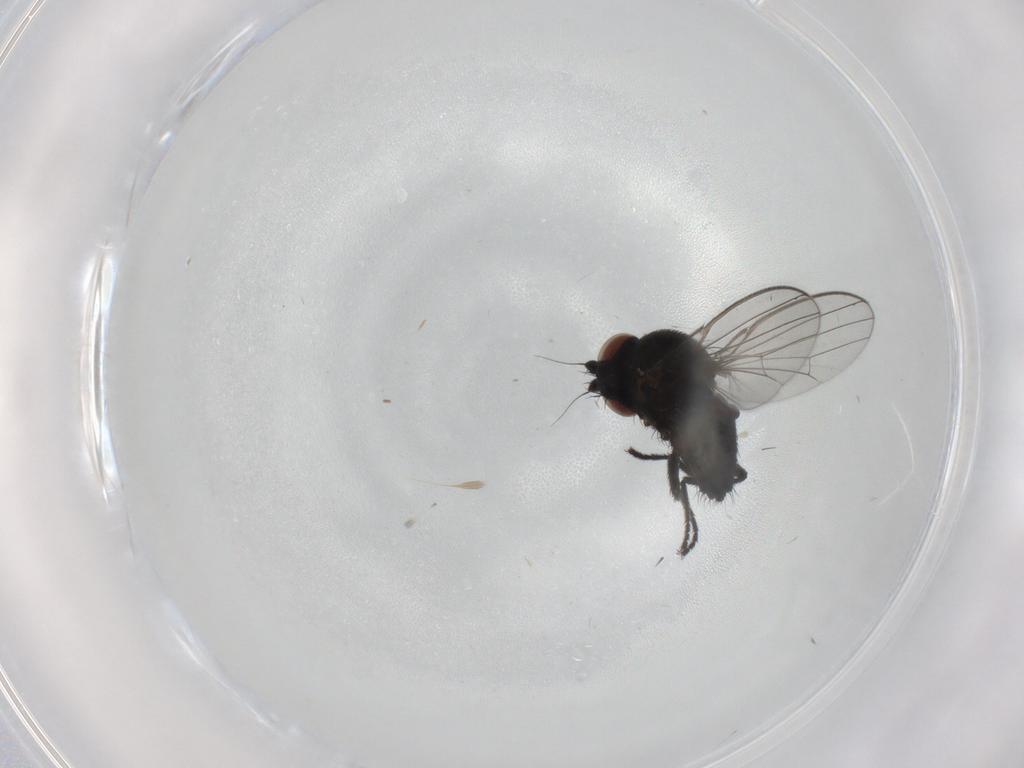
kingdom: Animalia
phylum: Arthropoda
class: Insecta
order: Diptera
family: Milichiidae
